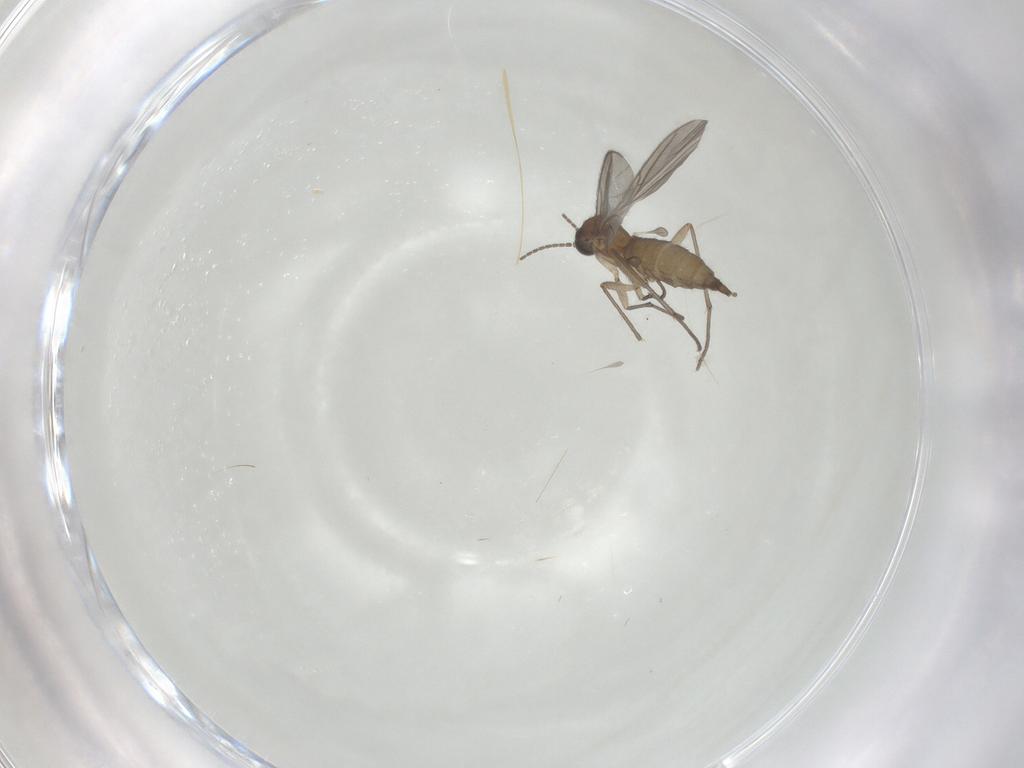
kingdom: Animalia
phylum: Arthropoda
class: Insecta
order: Diptera
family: Sciaridae
